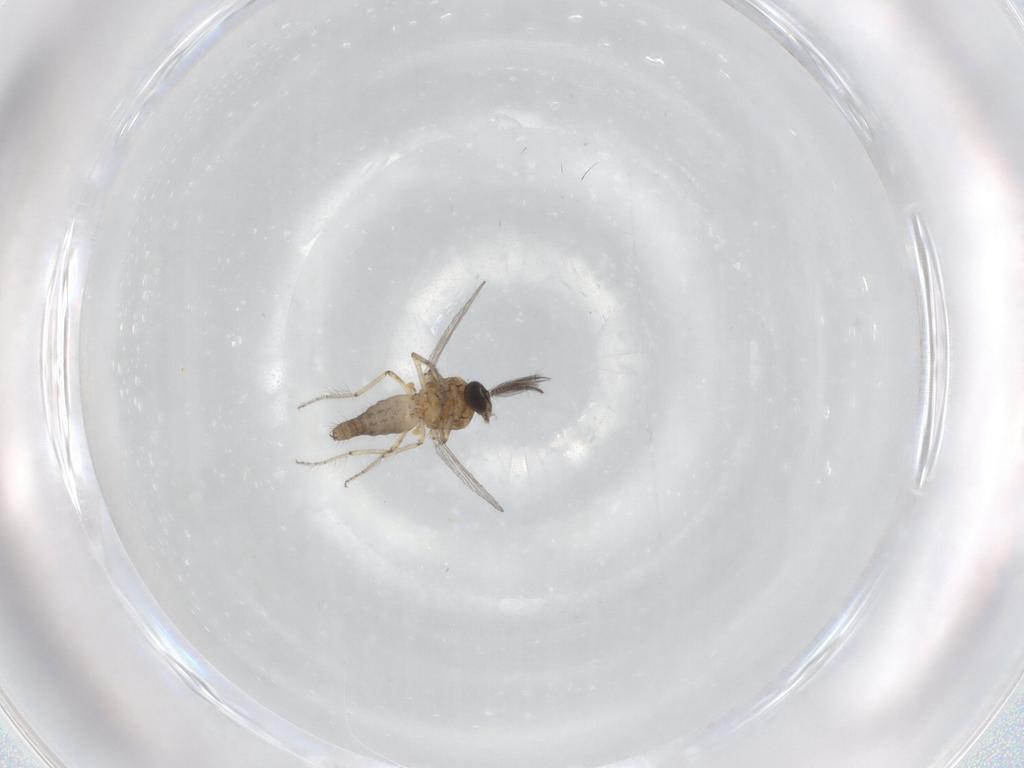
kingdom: Animalia
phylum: Arthropoda
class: Insecta
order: Diptera
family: Ceratopogonidae
